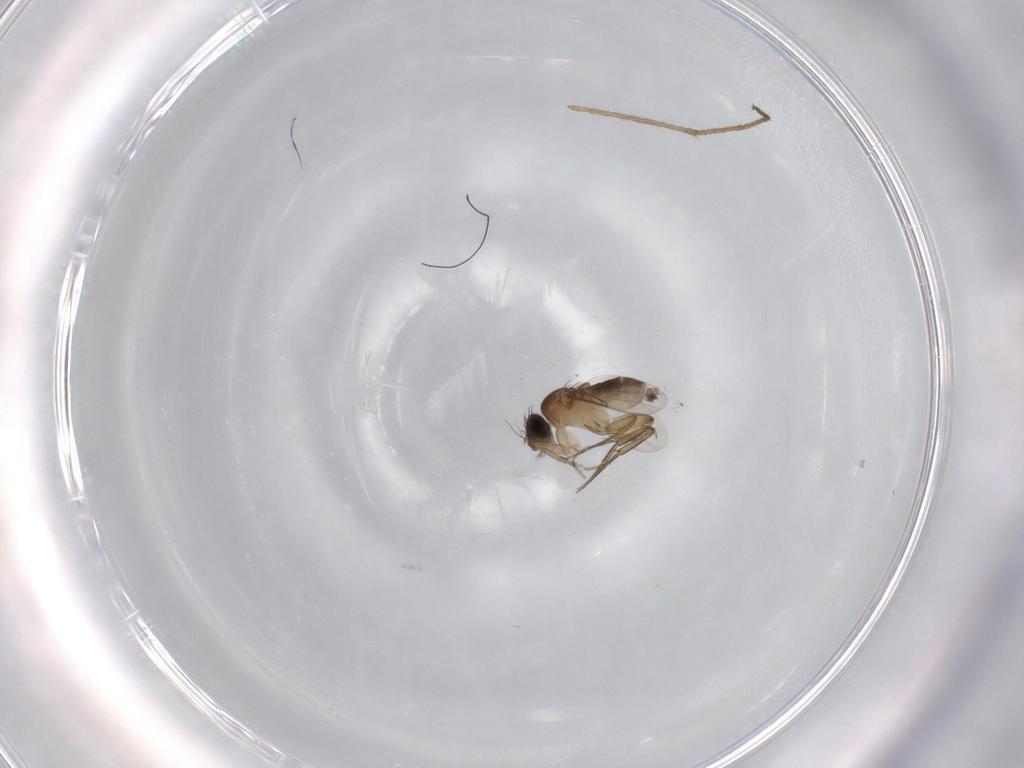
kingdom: Animalia
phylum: Arthropoda
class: Insecta
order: Diptera
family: Phoridae
